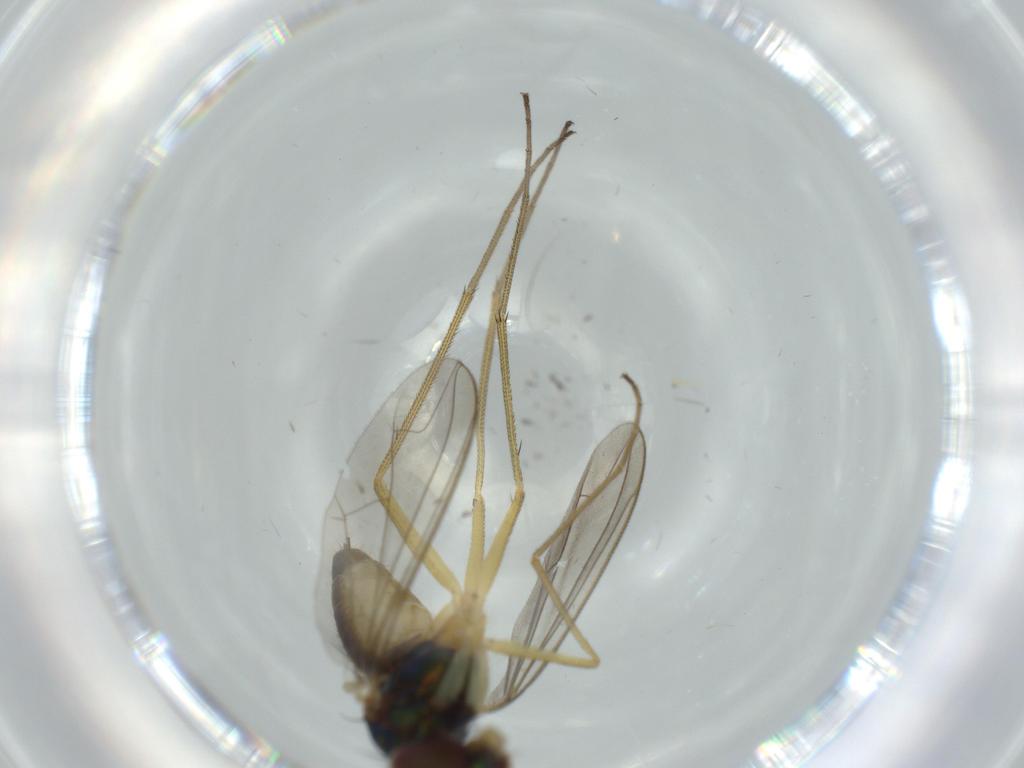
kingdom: Animalia
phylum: Arthropoda
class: Insecta
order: Diptera
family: Dolichopodidae
